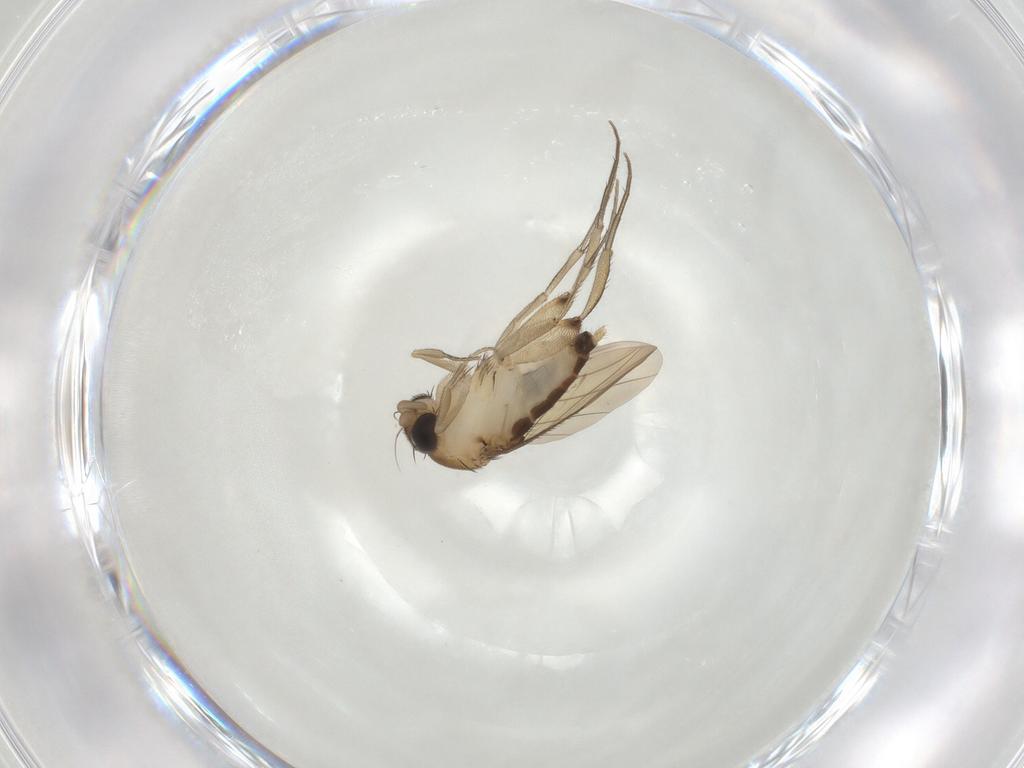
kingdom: Animalia
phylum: Arthropoda
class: Insecta
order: Diptera
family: Phoridae
